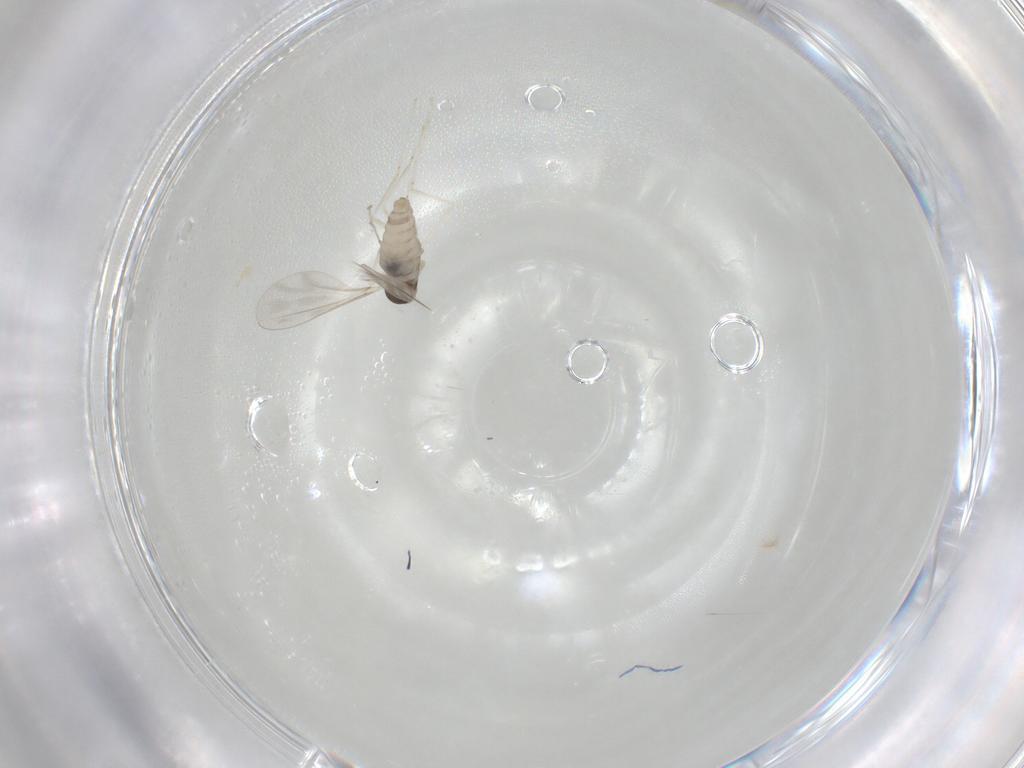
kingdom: Animalia
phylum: Arthropoda
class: Insecta
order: Diptera
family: Cecidomyiidae
